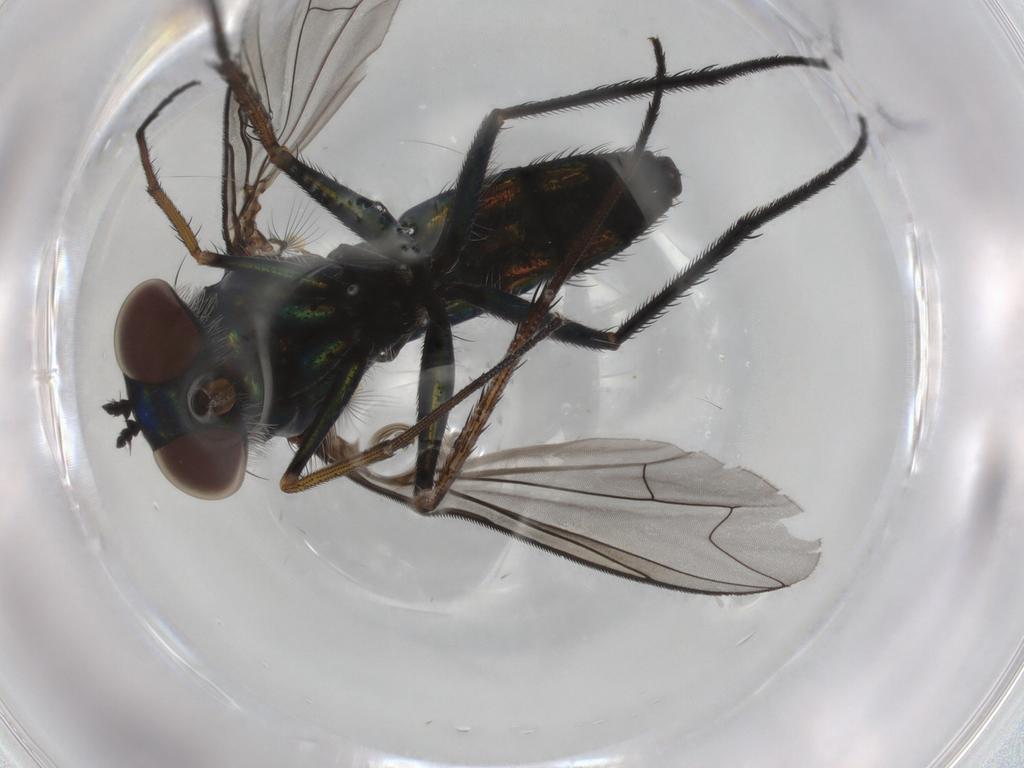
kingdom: Animalia
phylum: Arthropoda
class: Insecta
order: Diptera
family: Dolichopodidae
